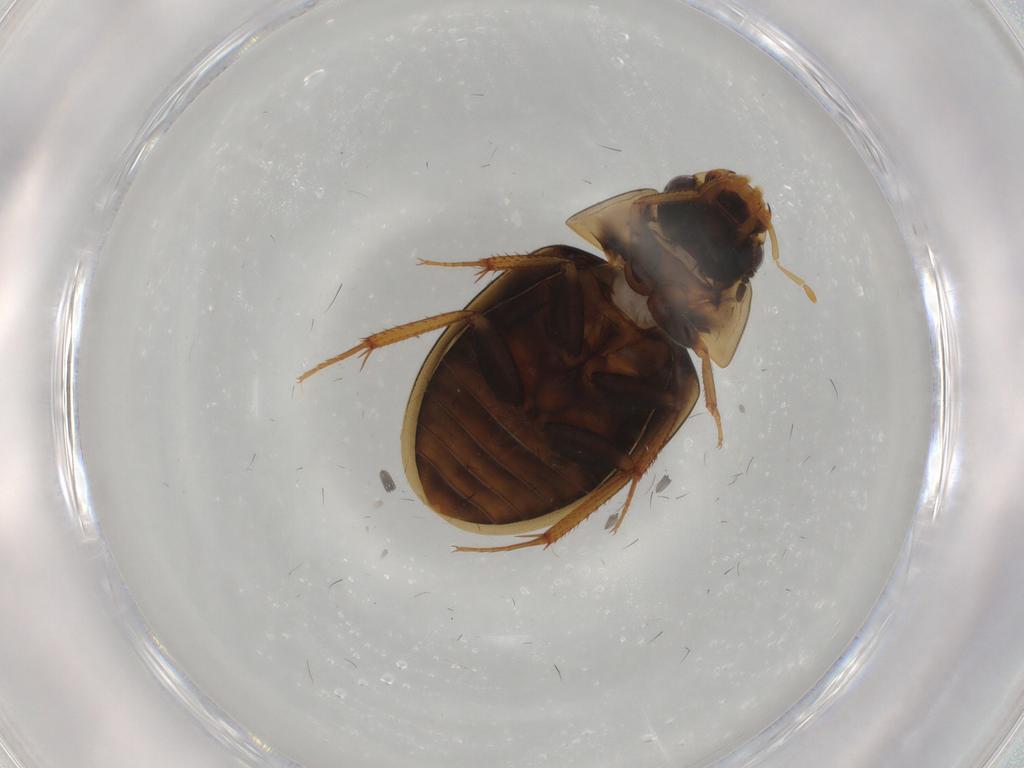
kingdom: Animalia
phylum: Arthropoda
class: Insecta
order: Coleoptera
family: Hydrophilidae
